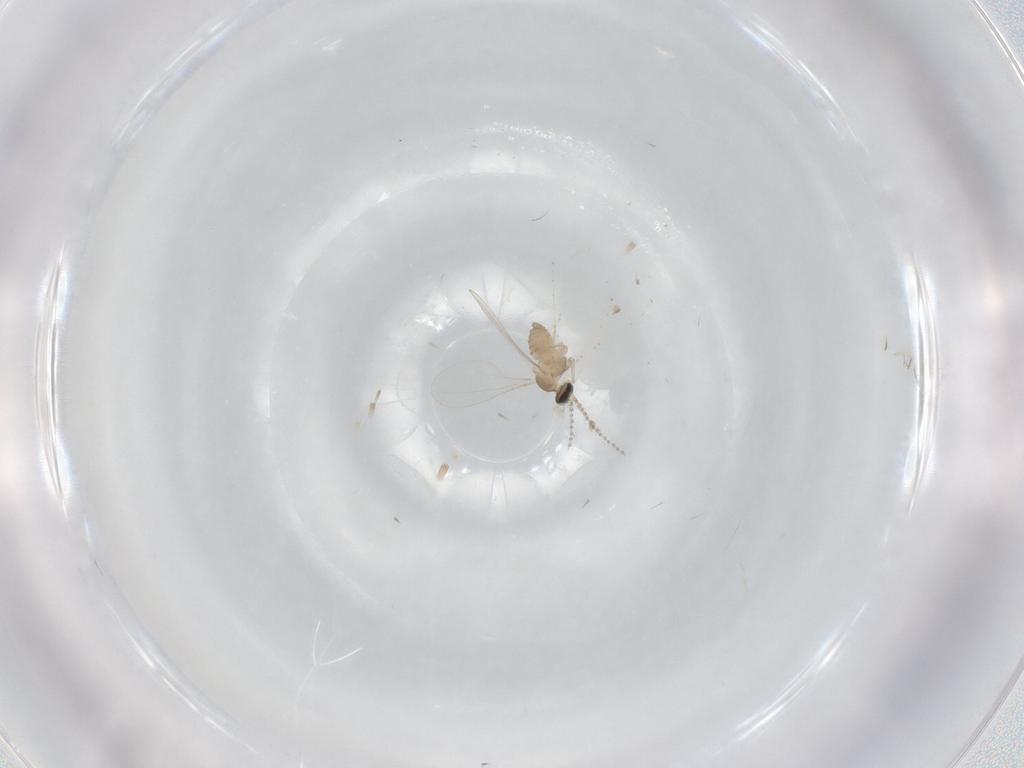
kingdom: Animalia
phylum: Arthropoda
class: Insecta
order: Diptera
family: Cecidomyiidae
